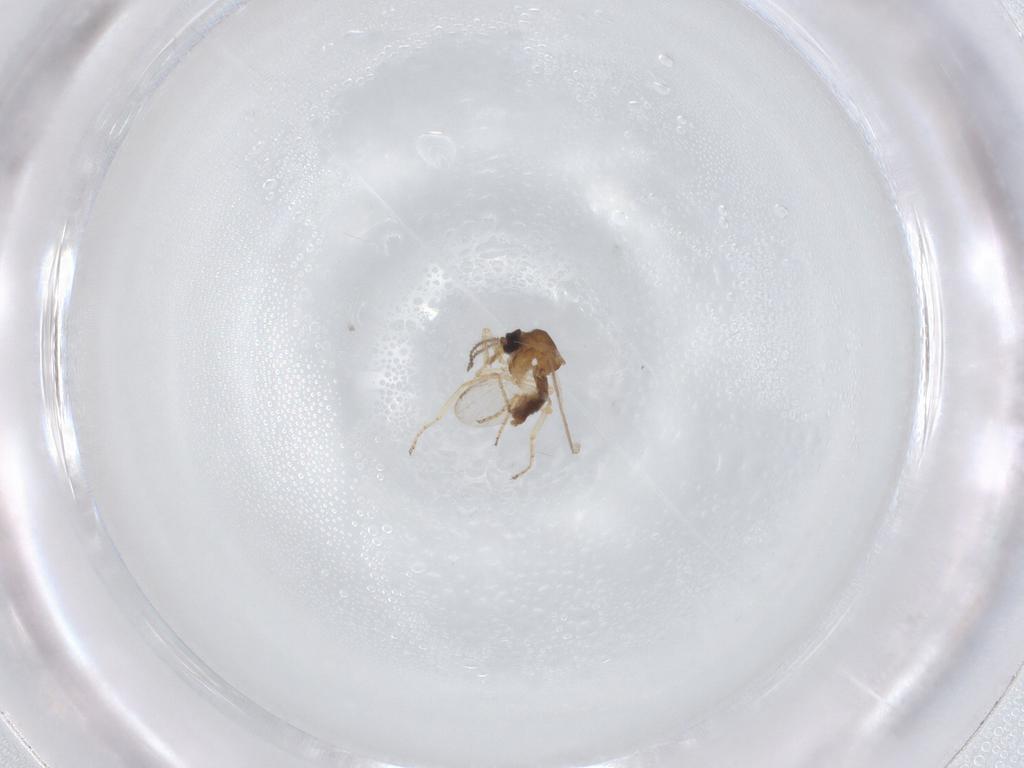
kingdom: Animalia
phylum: Arthropoda
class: Insecta
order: Diptera
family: Ceratopogonidae
